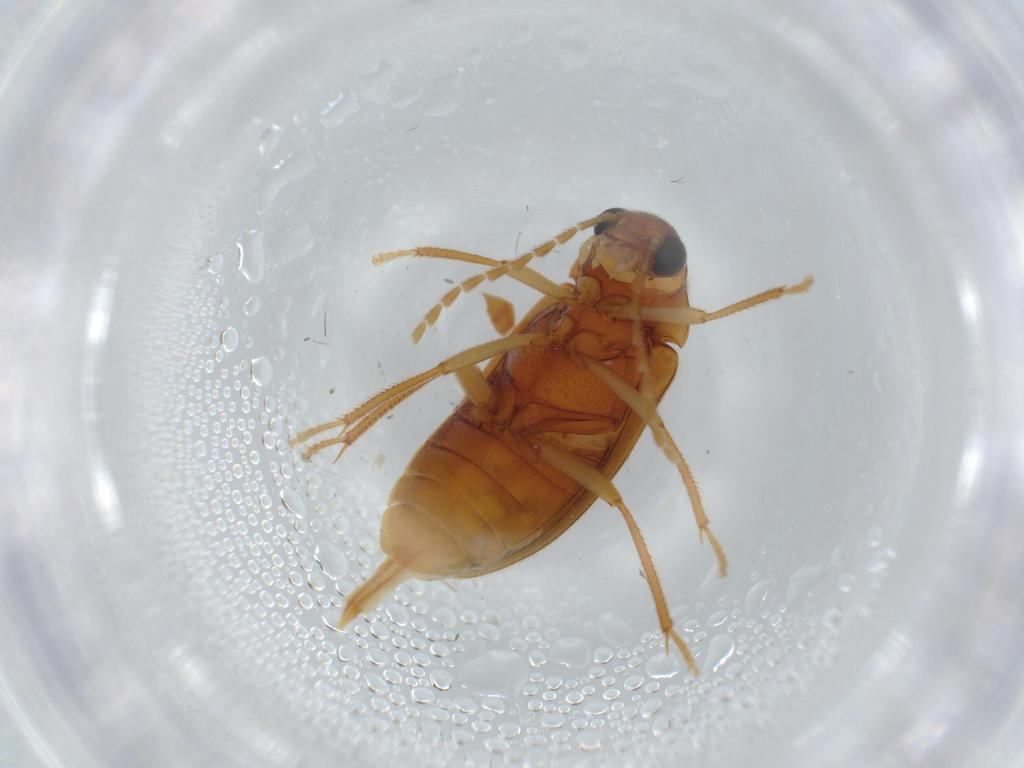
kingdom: Animalia
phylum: Arthropoda
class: Insecta
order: Coleoptera
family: Ptilodactylidae
